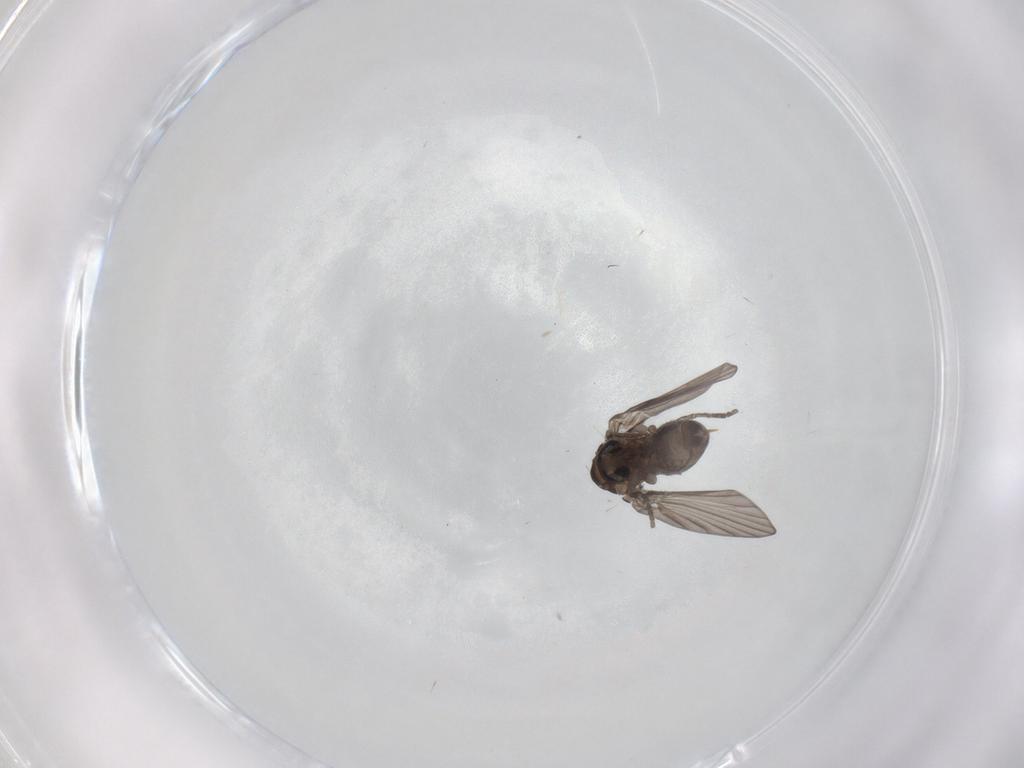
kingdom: Animalia
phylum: Arthropoda
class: Insecta
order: Diptera
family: Psychodidae
